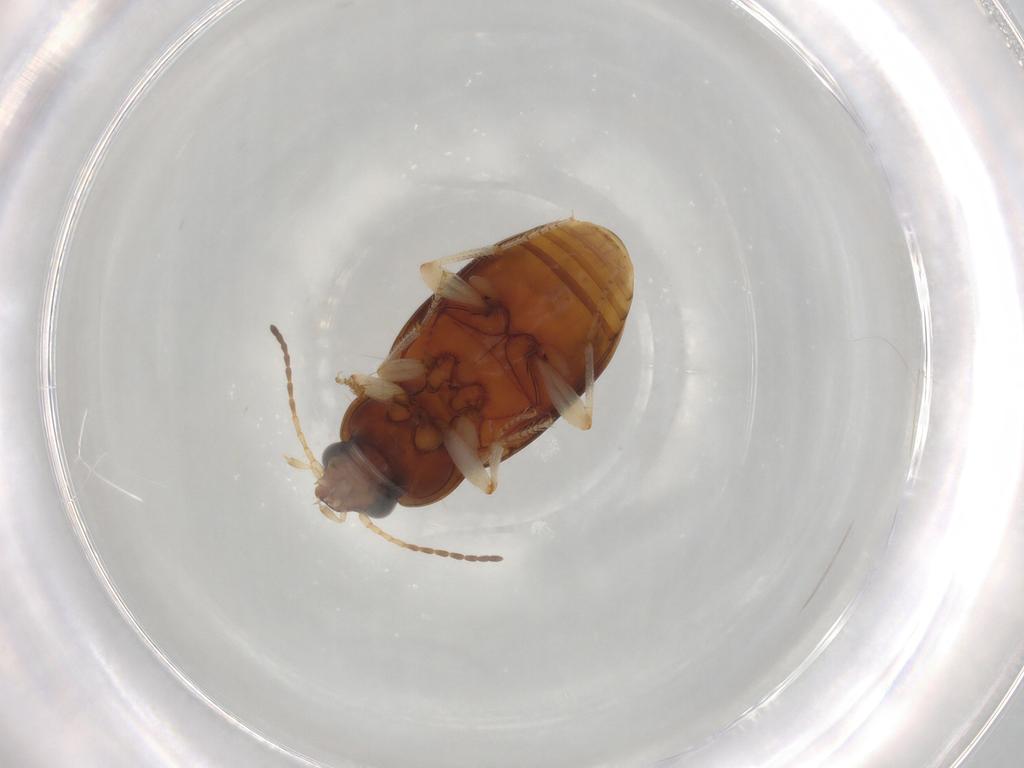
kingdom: Animalia
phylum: Arthropoda
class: Insecta
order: Coleoptera
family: Carabidae
